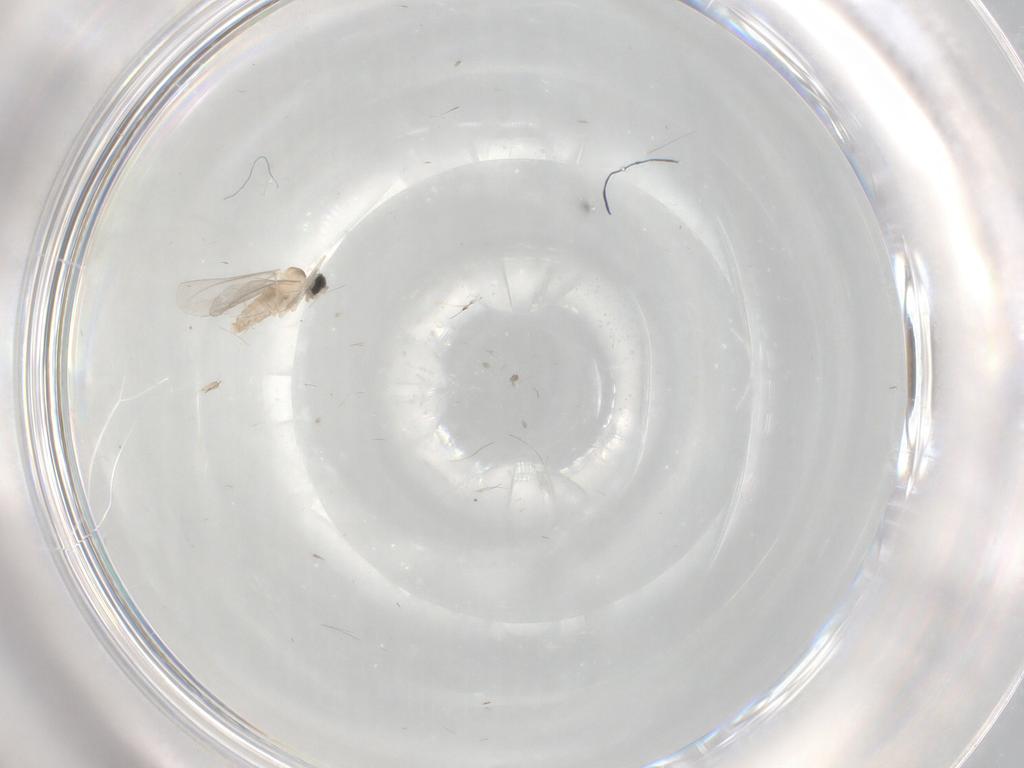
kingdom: Animalia
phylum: Arthropoda
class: Insecta
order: Diptera
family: Cecidomyiidae
